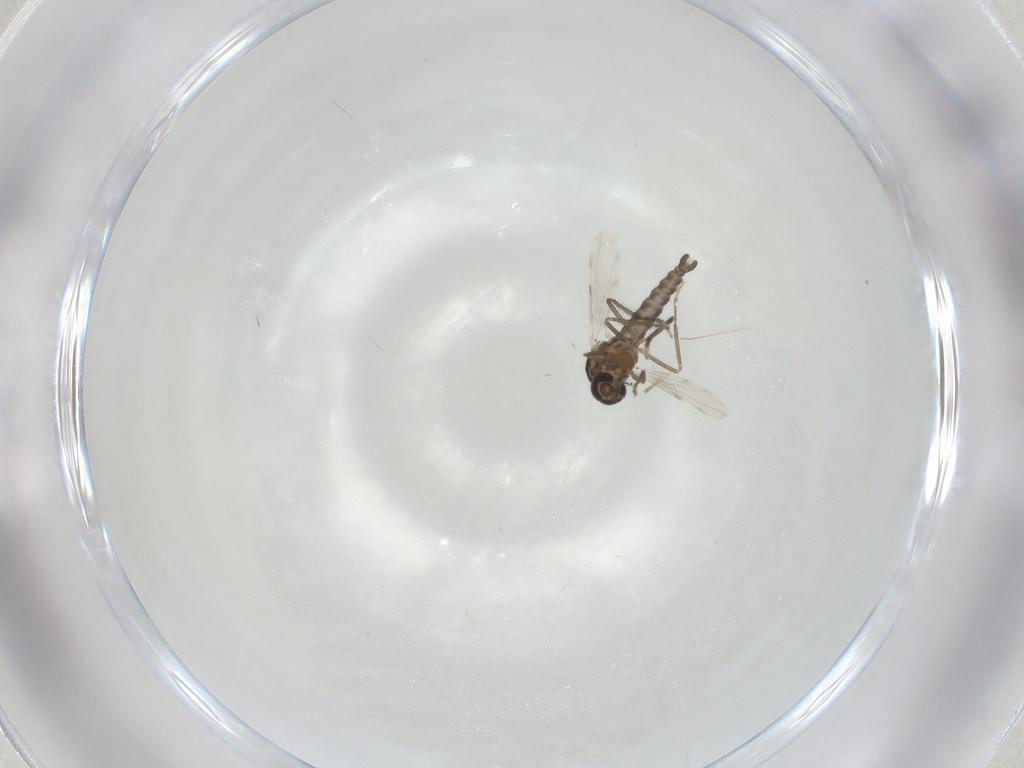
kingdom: Animalia
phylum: Arthropoda
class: Insecta
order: Diptera
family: Ceratopogonidae
